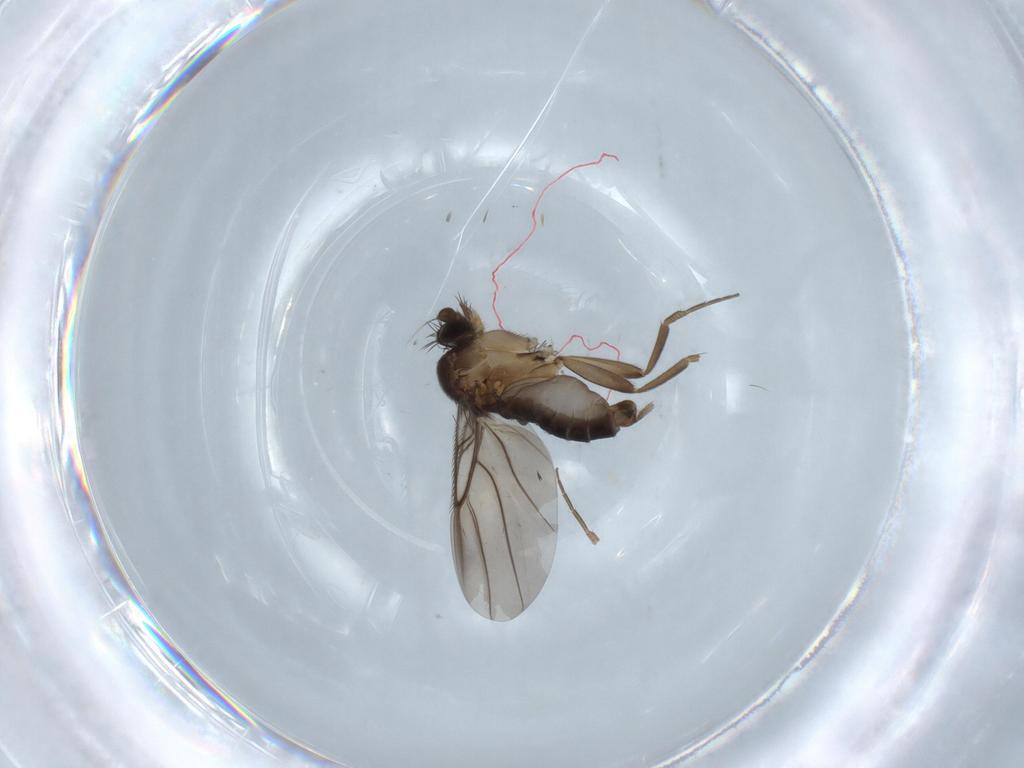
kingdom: Animalia
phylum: Arthropoda
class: Insecta
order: Diptera
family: Phoridae
